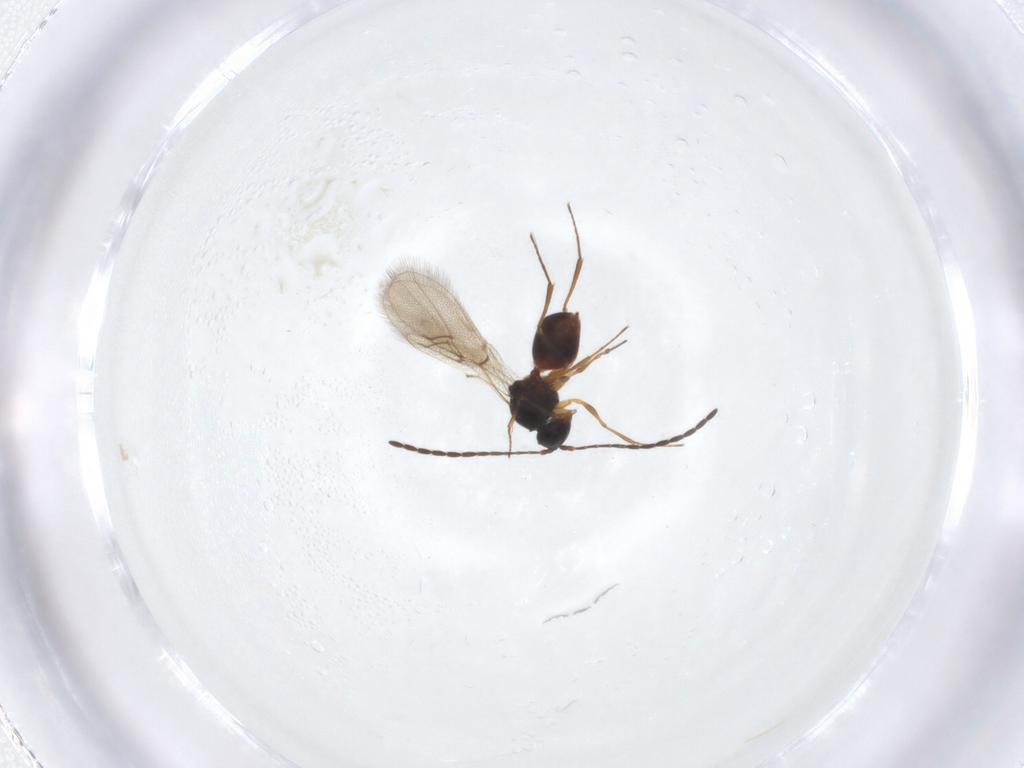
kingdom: Animalia
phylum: Arthropoda
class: Insecta
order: Hymenoptera
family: Figitidae
